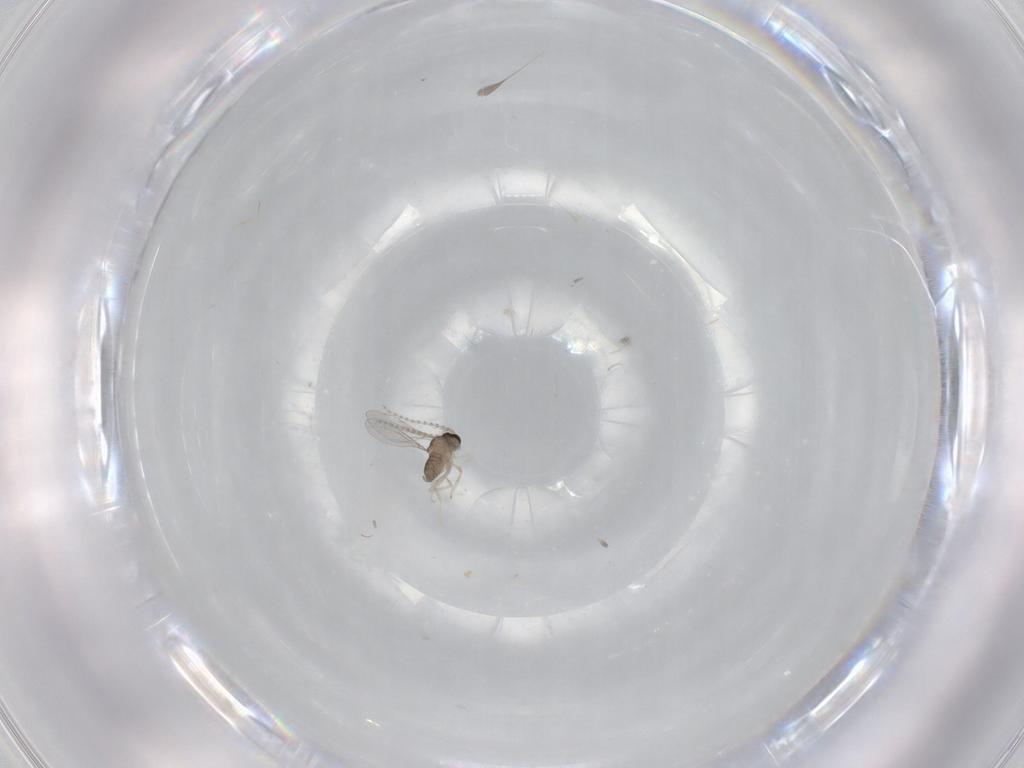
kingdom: Animalia
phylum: Arthropoda
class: Insecta
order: Diptera
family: Cecidomyiidae
